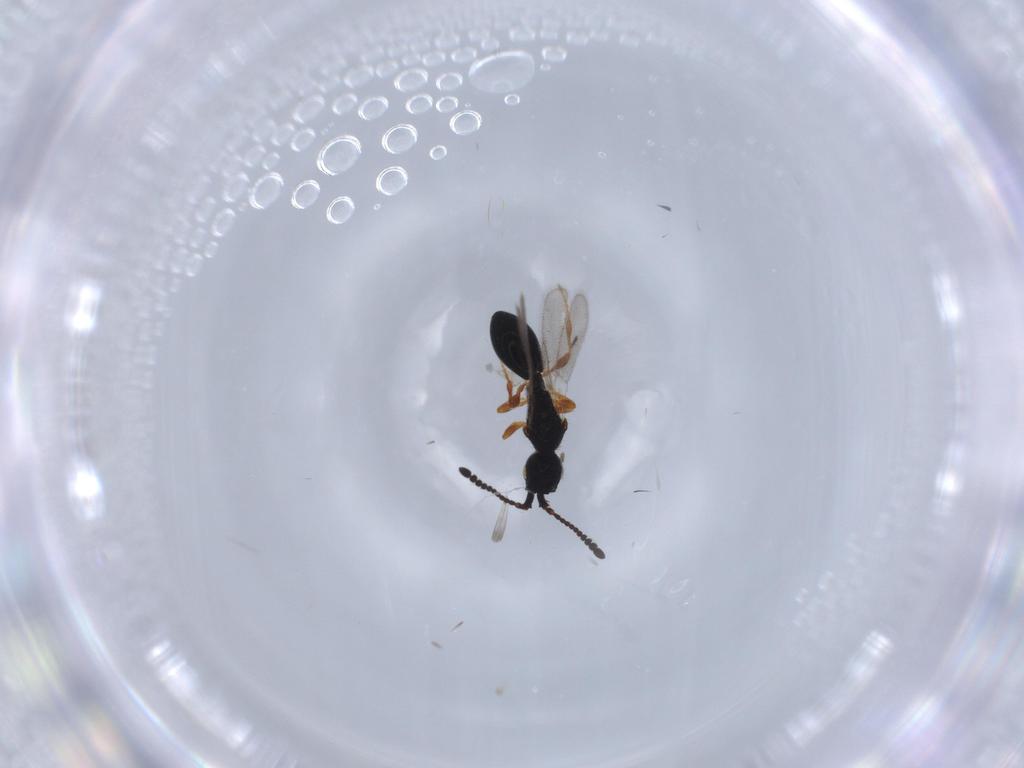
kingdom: Animalia
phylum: Arthropoda
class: Insecta
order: Hymenoptera
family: Diapriidae
